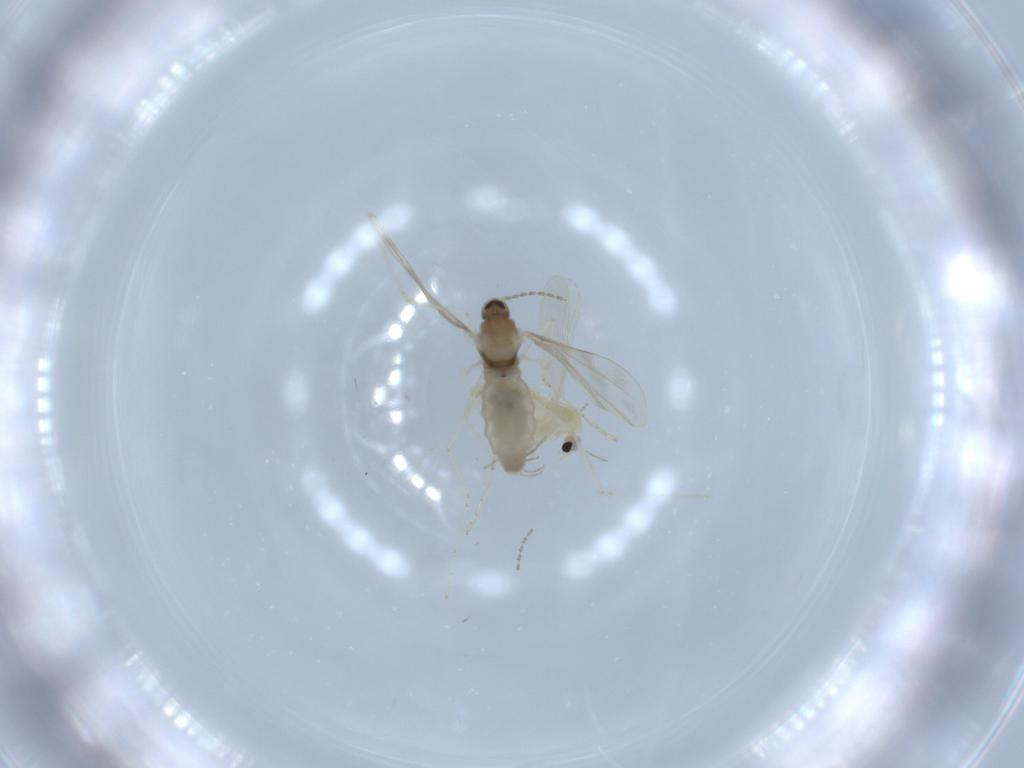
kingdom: Animalia
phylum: Arthropoda
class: Insecta
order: Diptera
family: Chironomidae
